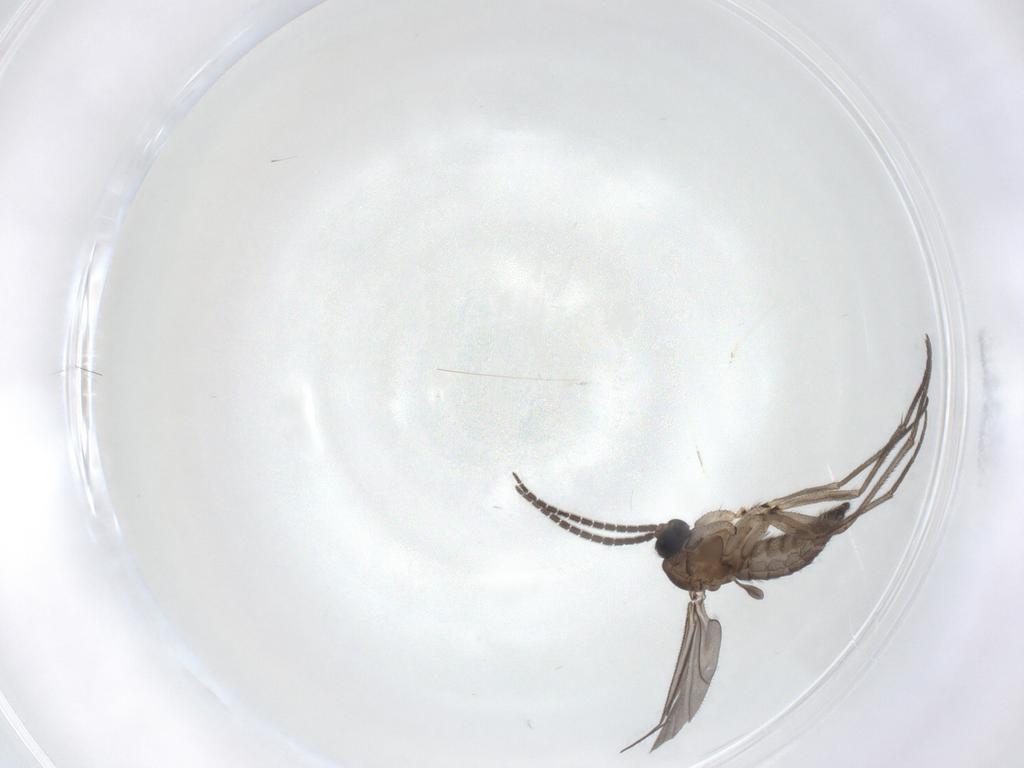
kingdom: Animalia
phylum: Arthropoda
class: Insecta
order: Diptera
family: Sciaridae
